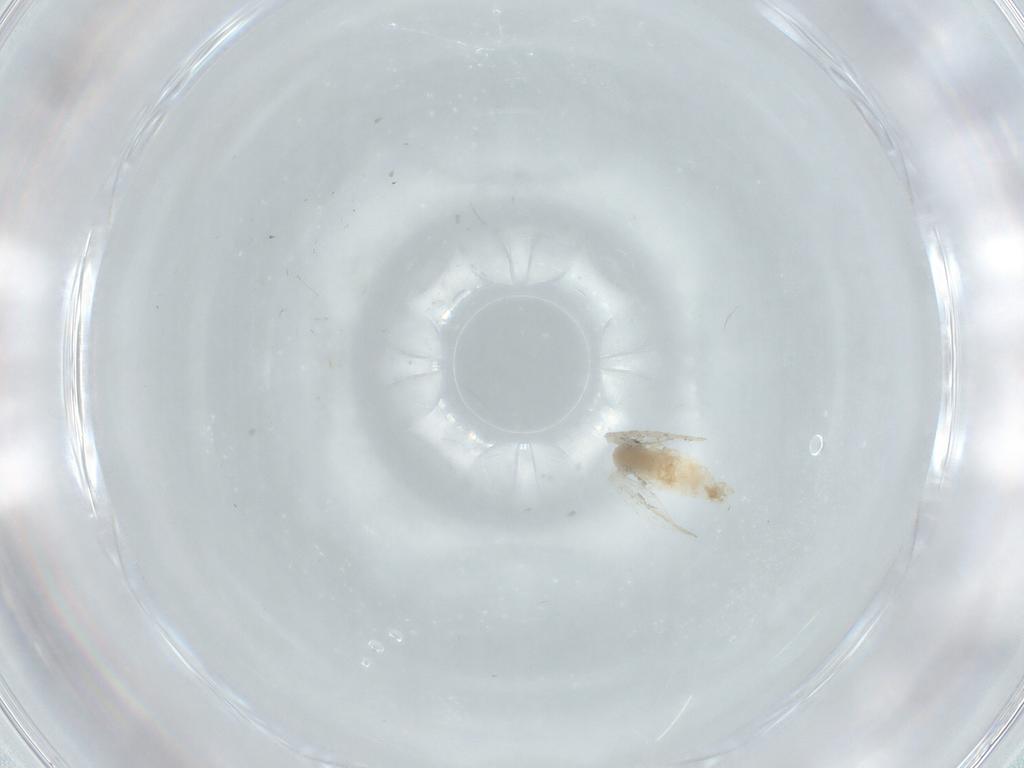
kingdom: Animalia
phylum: Arthropoda
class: Insecta
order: Diptera
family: Psychodidae
